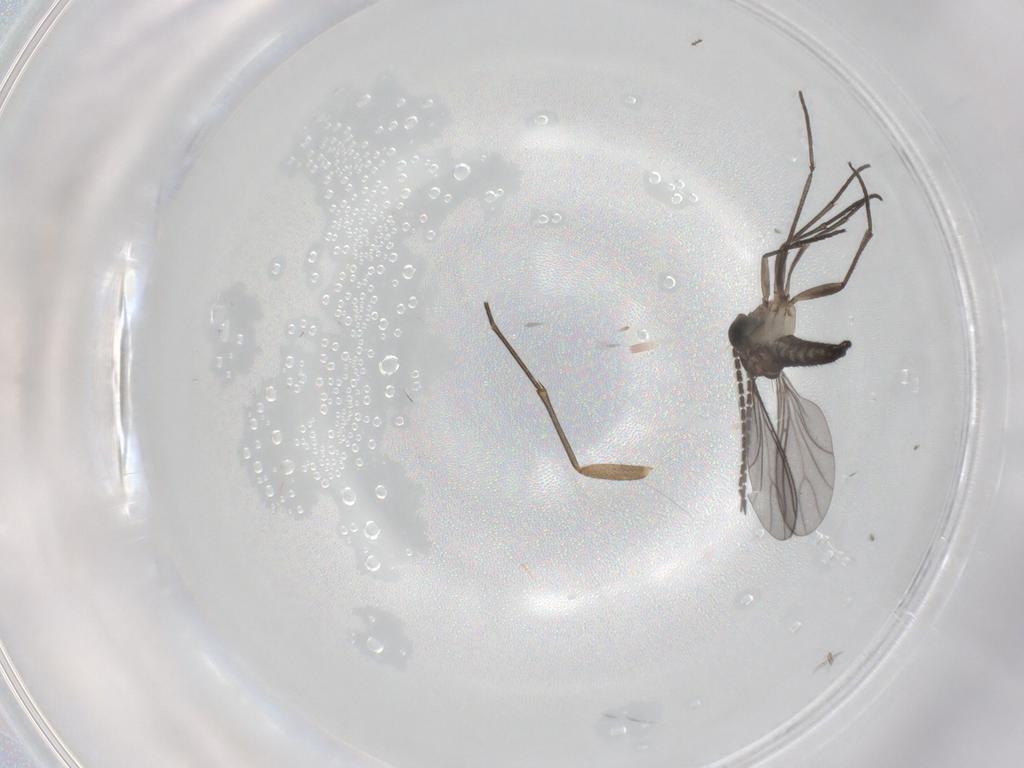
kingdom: Animalia
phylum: Arthropoda
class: Insecta
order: Diptera
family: Sciaridae
